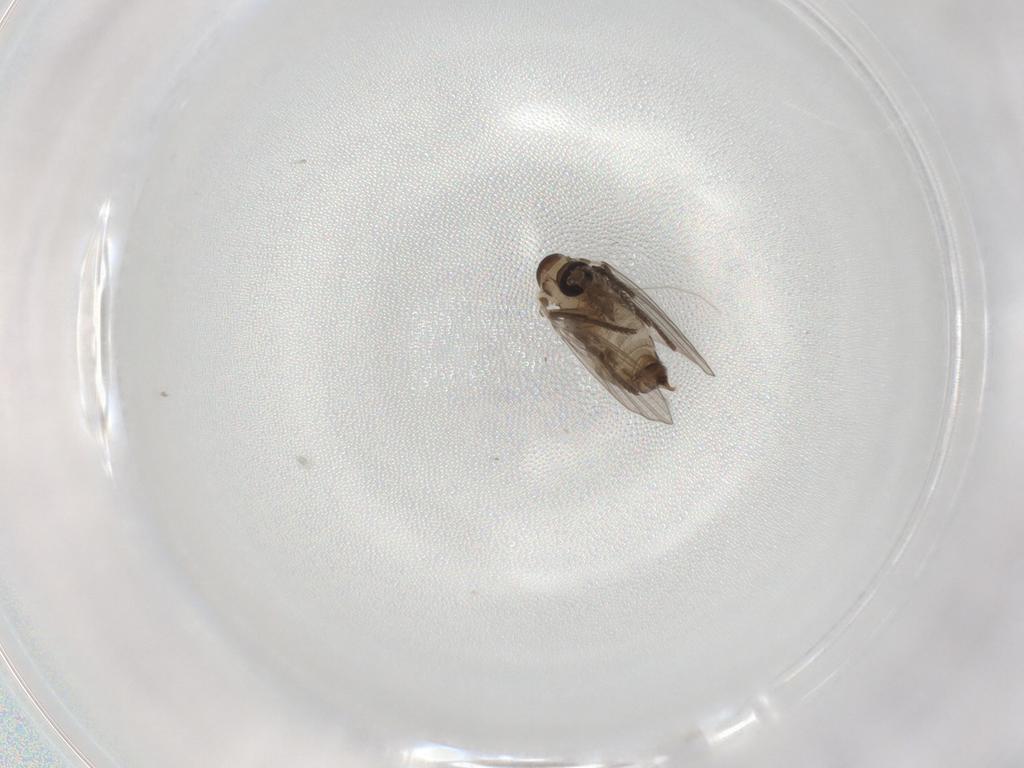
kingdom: Animalia
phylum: Arthropoda
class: Insecta
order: Diptera
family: Psychodidae
